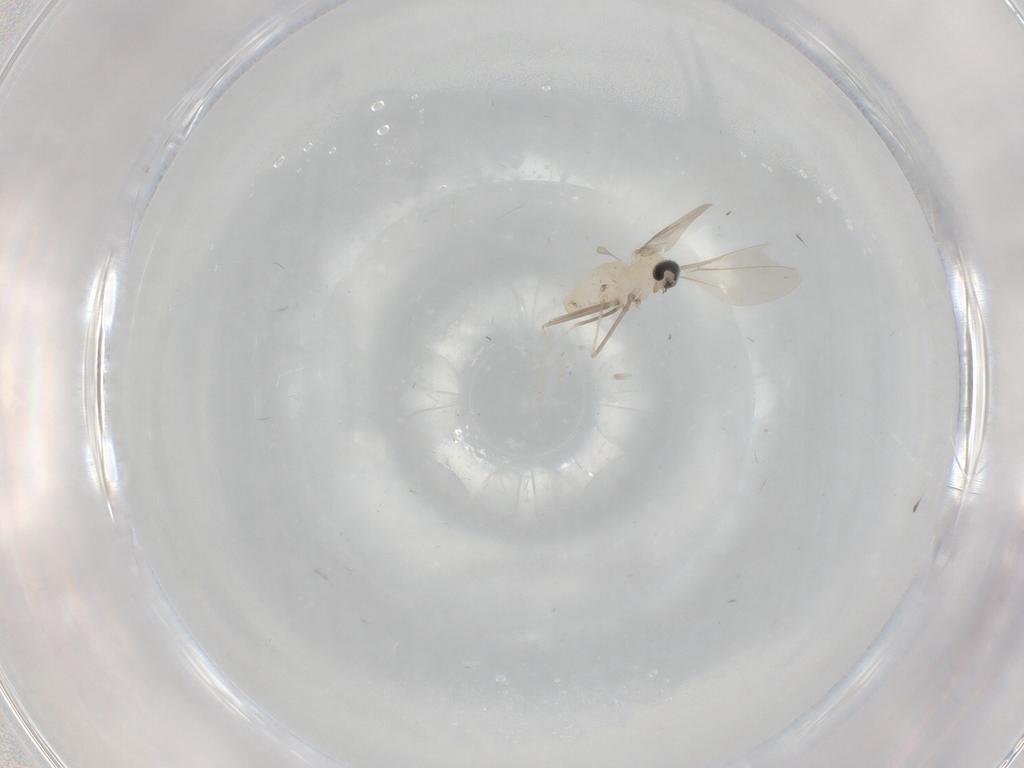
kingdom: Animalia
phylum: Arthropoda
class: Insecta
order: Diptera
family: Cecidomyiidae
